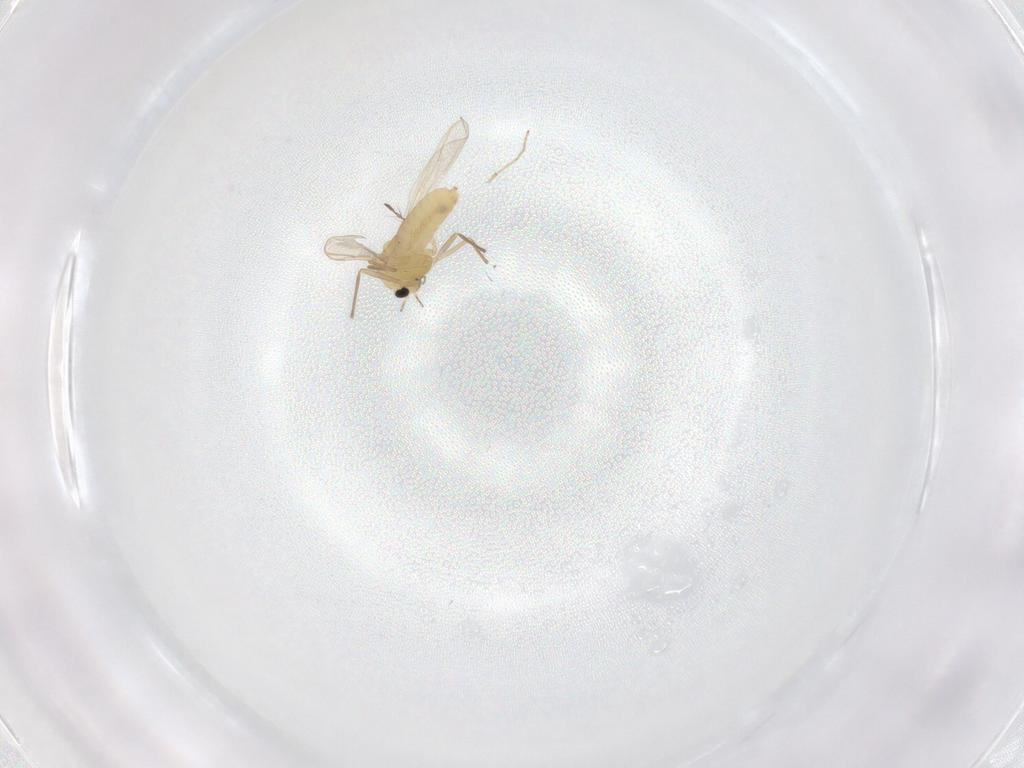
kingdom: Animalia
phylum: Arthropoda
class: Insecta
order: Diptera
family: Chironomidae
